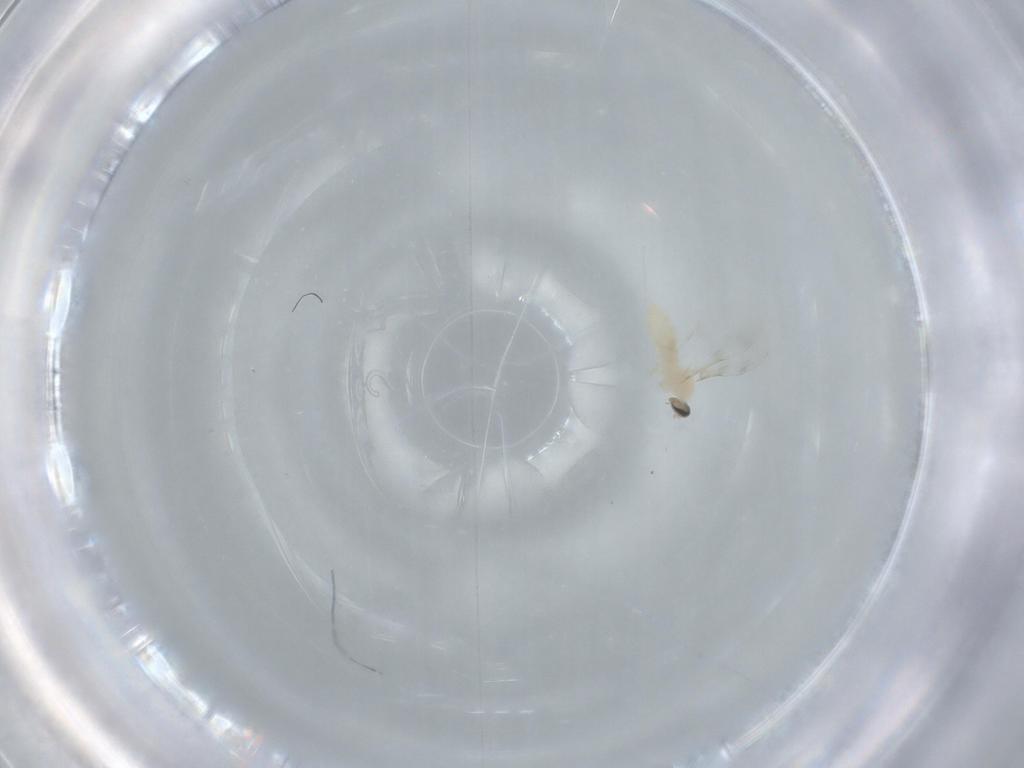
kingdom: Animalia
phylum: Arthropoda
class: Insecta
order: Diptera
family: Cecidomyiidae
